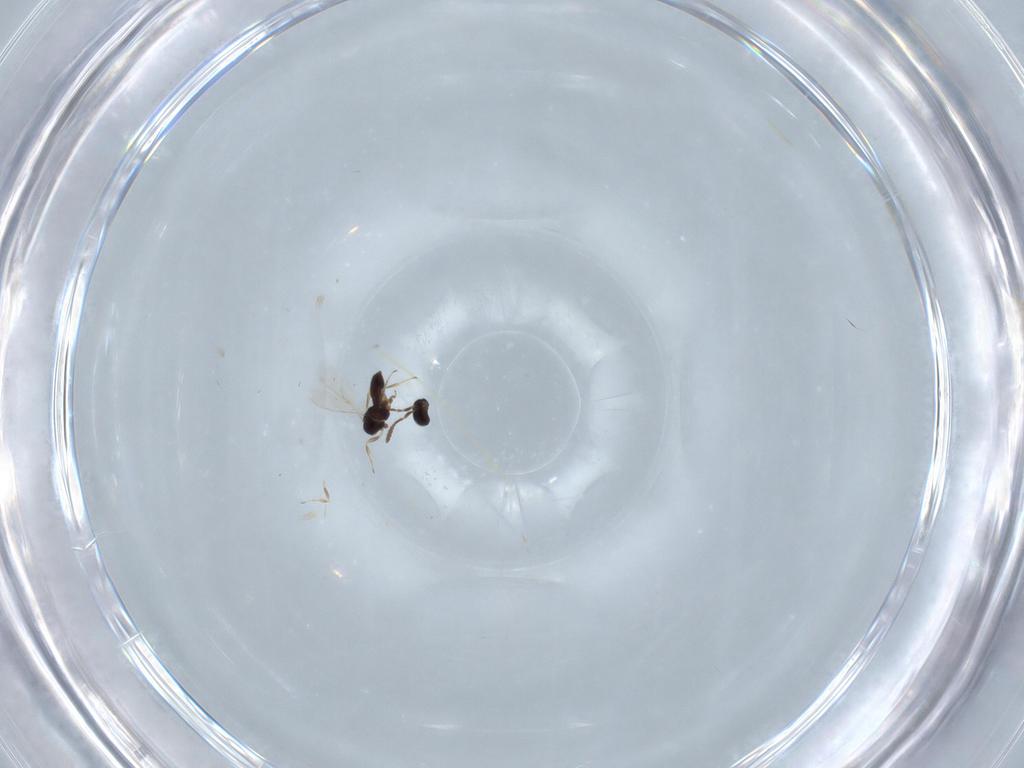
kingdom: Animalia
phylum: Arthropoda
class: Insecta
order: Hymenoptera
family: Scelionidae
